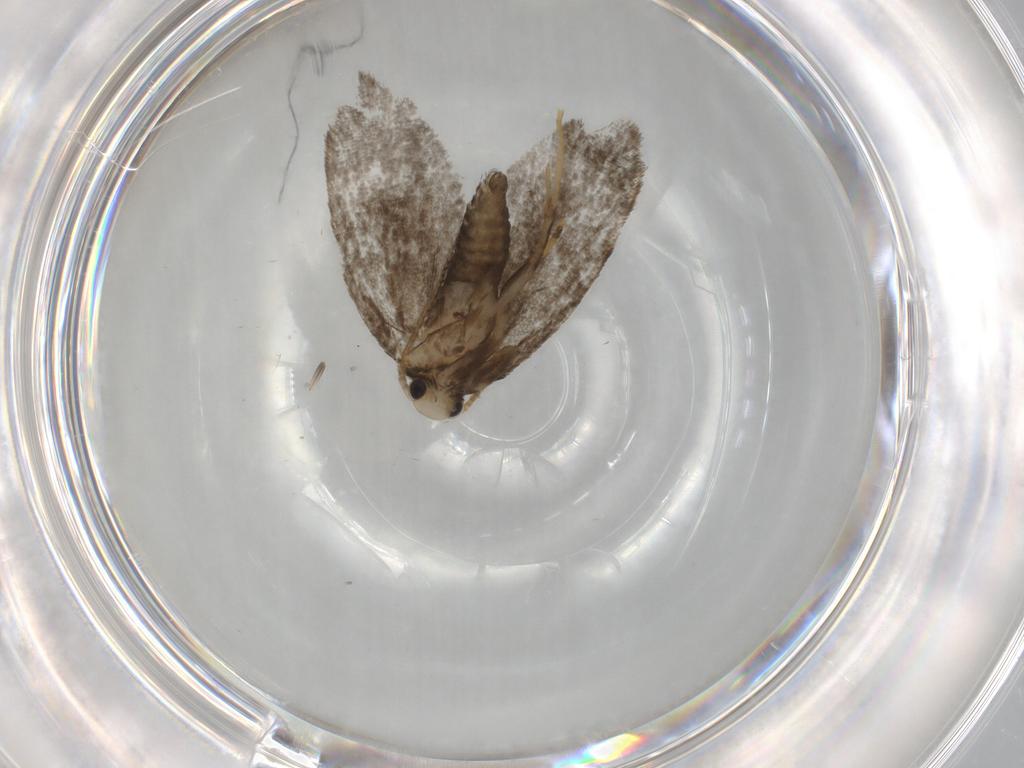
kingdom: Animalia
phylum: Arthropoda
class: Insecta
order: Lepidoptera
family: Psychidae
